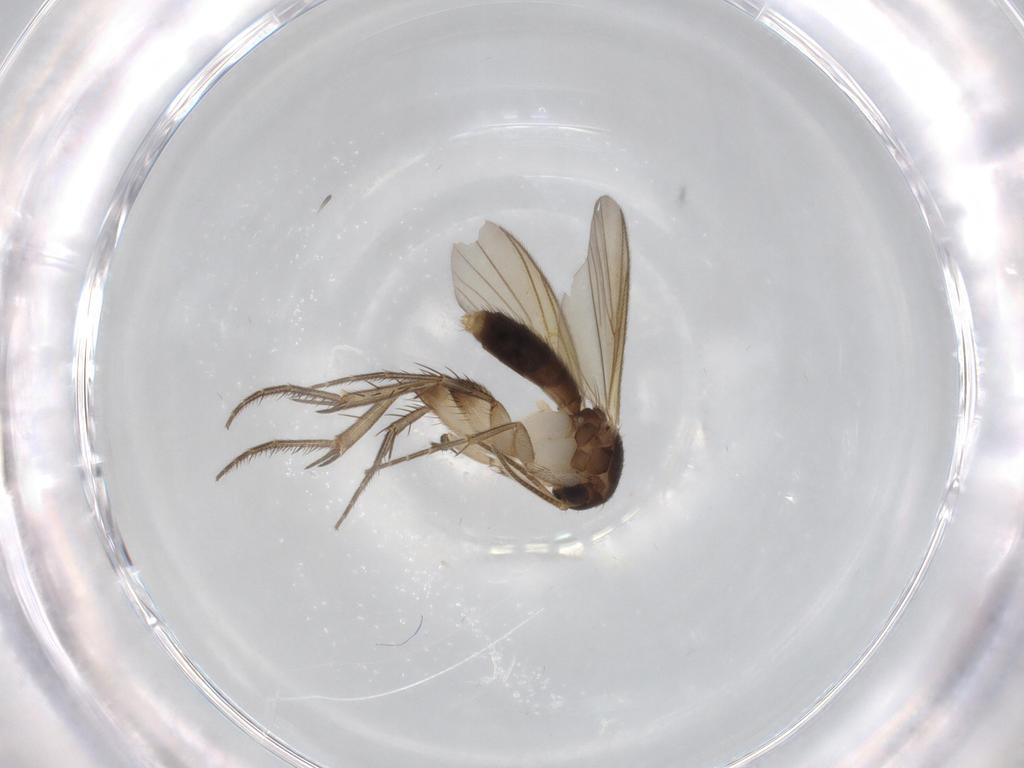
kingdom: Animalia
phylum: Arthropoda
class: Insecta
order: Diptera
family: Mycetophilidae
